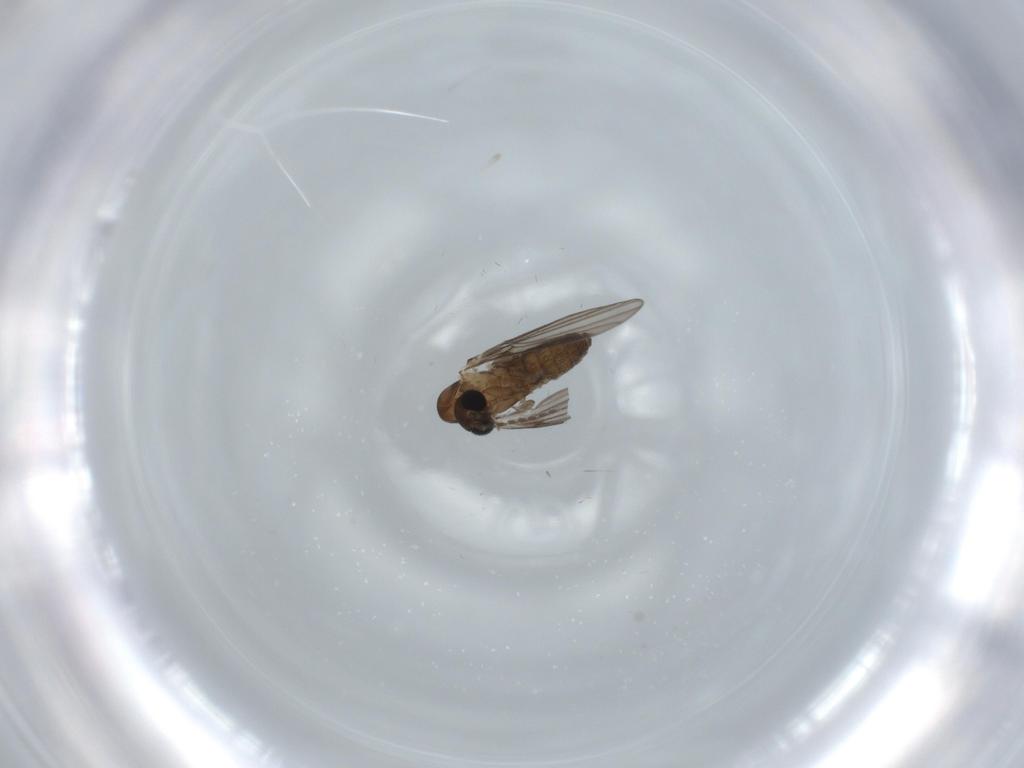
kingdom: Animalia
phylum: Arthropoda
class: Insecta
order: Diptera
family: Psychodidae
